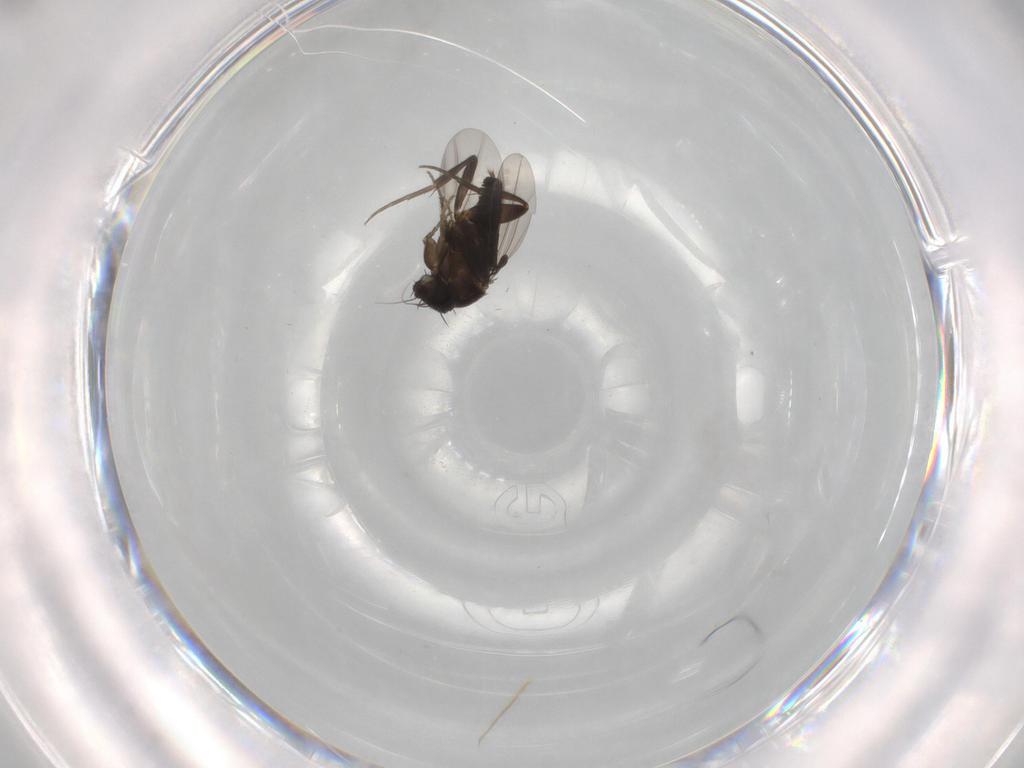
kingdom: Animalia
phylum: Arthropoda
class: Insecta
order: Diptera
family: Phoridae
